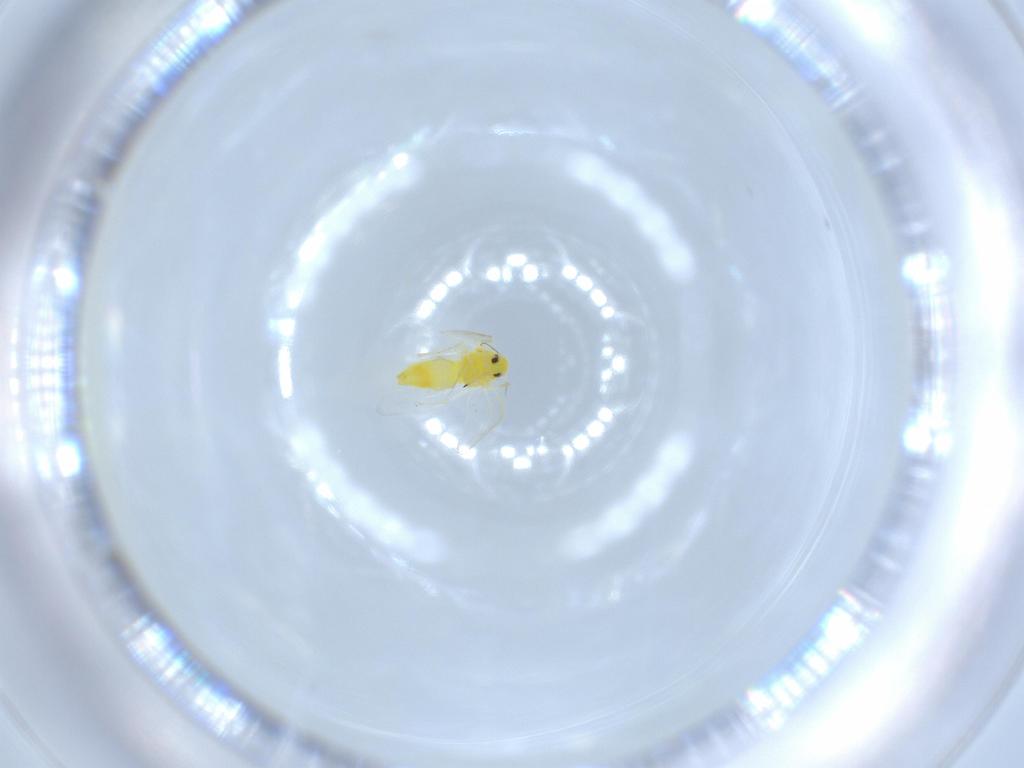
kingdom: Animalia
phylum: Arthropoda
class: Insecta
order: Hemiptera
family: Aleyrodidae
